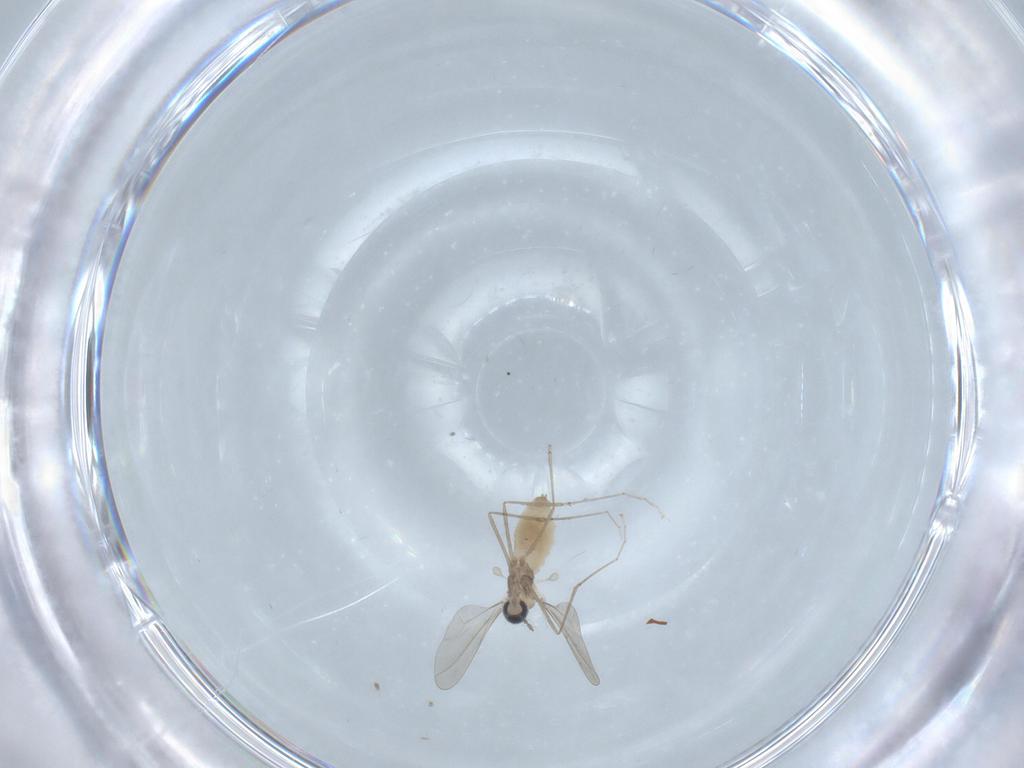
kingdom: Animalia
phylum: Arthropoda
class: Insecta
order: Diptera
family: Cecidomyiidae
